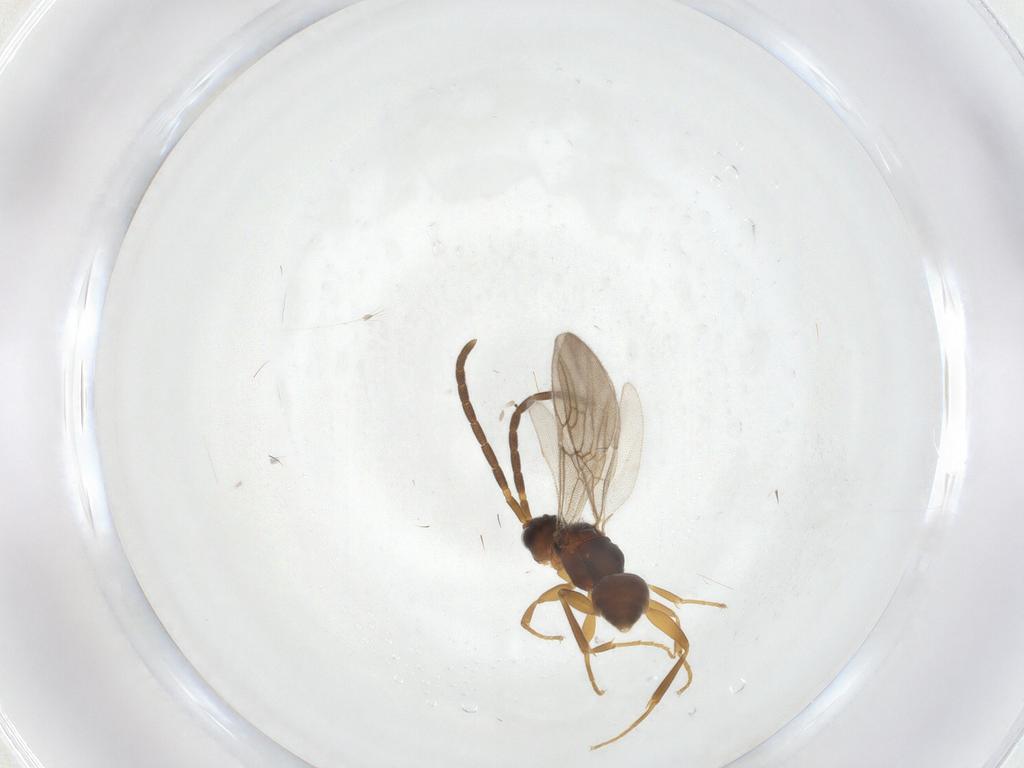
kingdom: Animalia
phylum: Arthropoda
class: Insecta
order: Hymenoptera
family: Embolemidae
